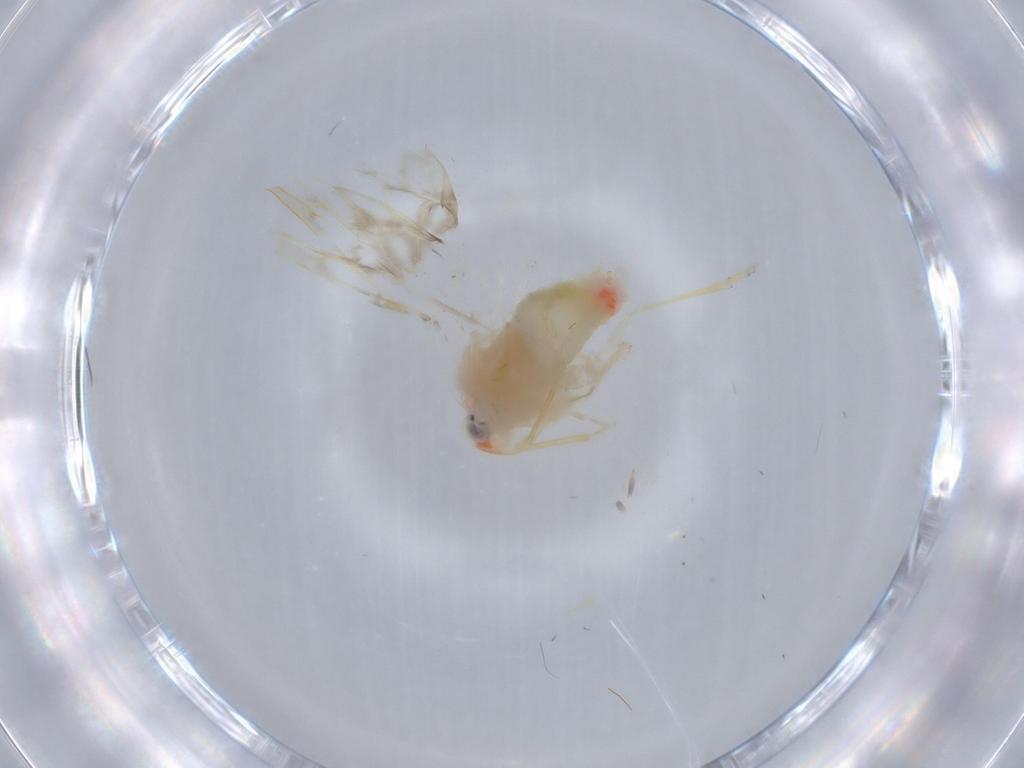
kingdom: Animalia
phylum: Arthropoda
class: Insecta
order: Hemiptera
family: Derbidae
